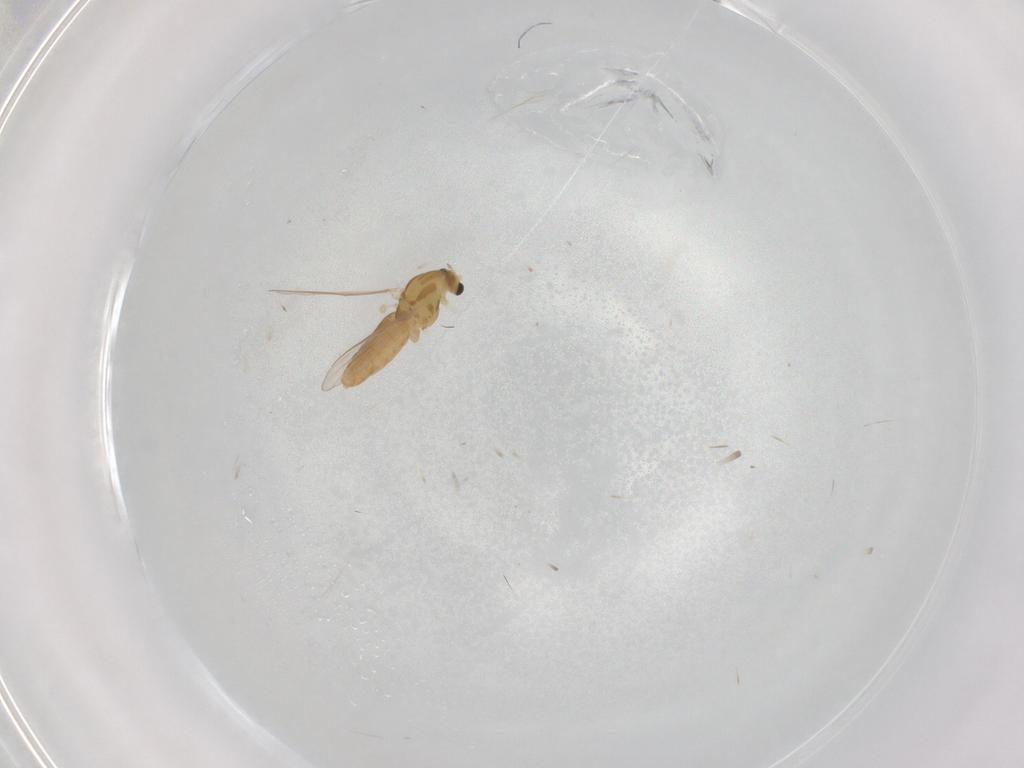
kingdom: Animalia
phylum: Arthropoda
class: Insecta
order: Diptera
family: Chironomidae
